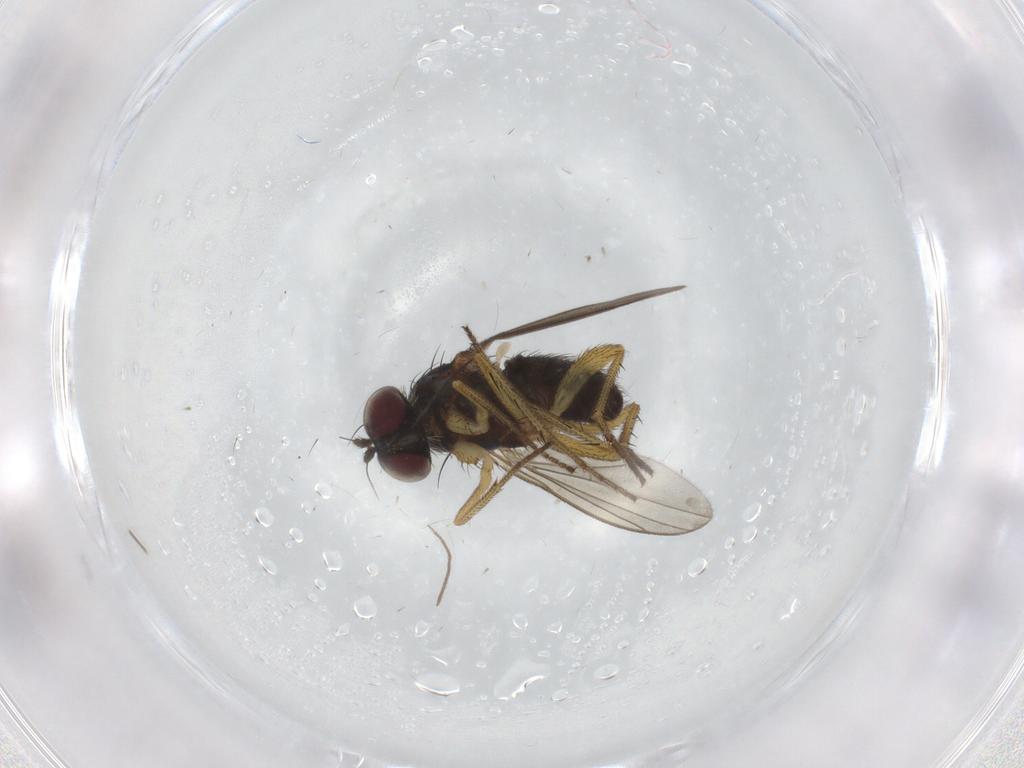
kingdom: Animalia
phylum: Arthropoda
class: Insecta
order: Diptera
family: Dolichopodidae
